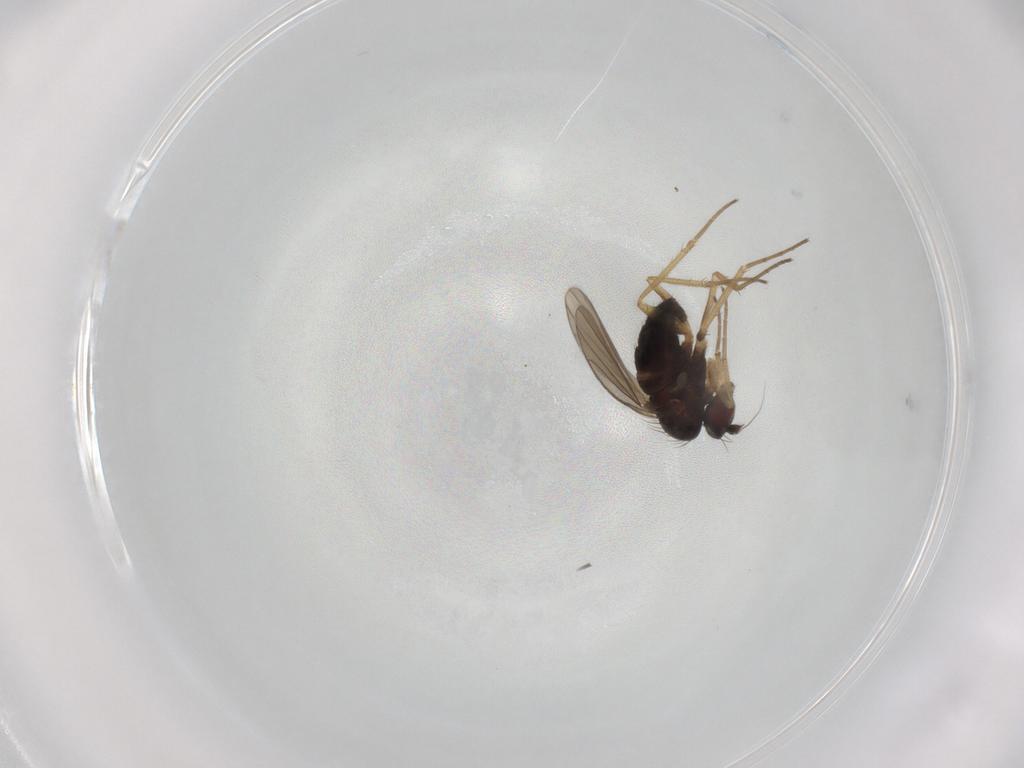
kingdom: Animalia
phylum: Arthropoda
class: Insecta
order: Diptera
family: Dolichopodidae
